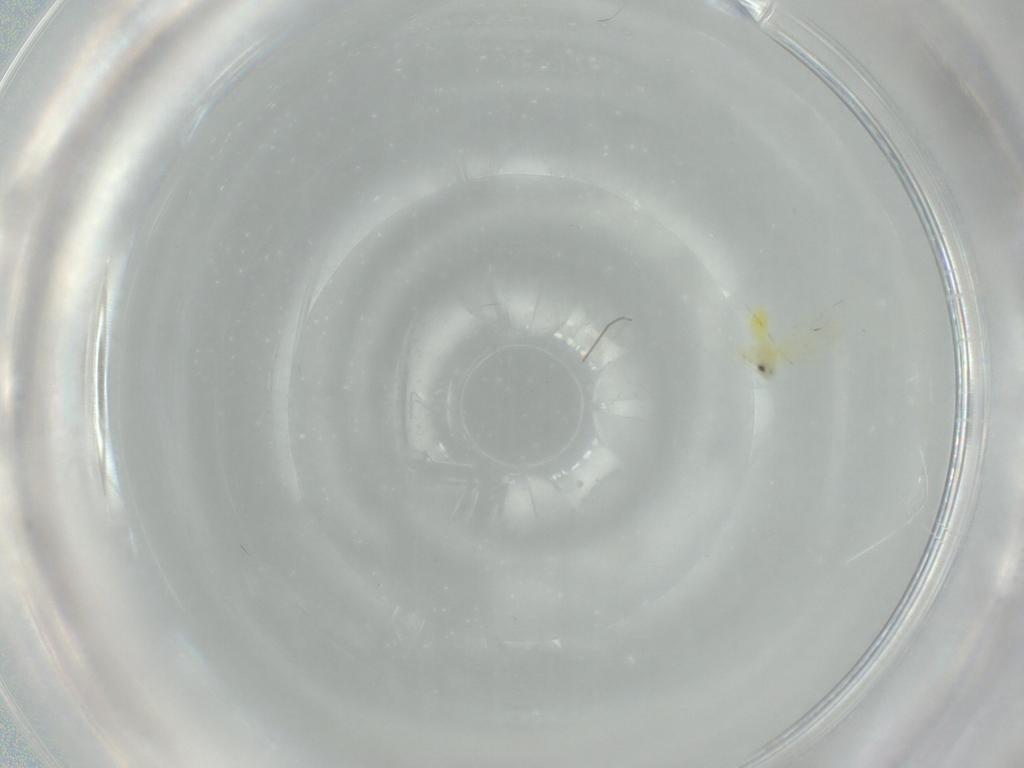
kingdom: Animalia
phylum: Arthropoda
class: Insecta
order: Hemiptera
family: Aleyrodidae
